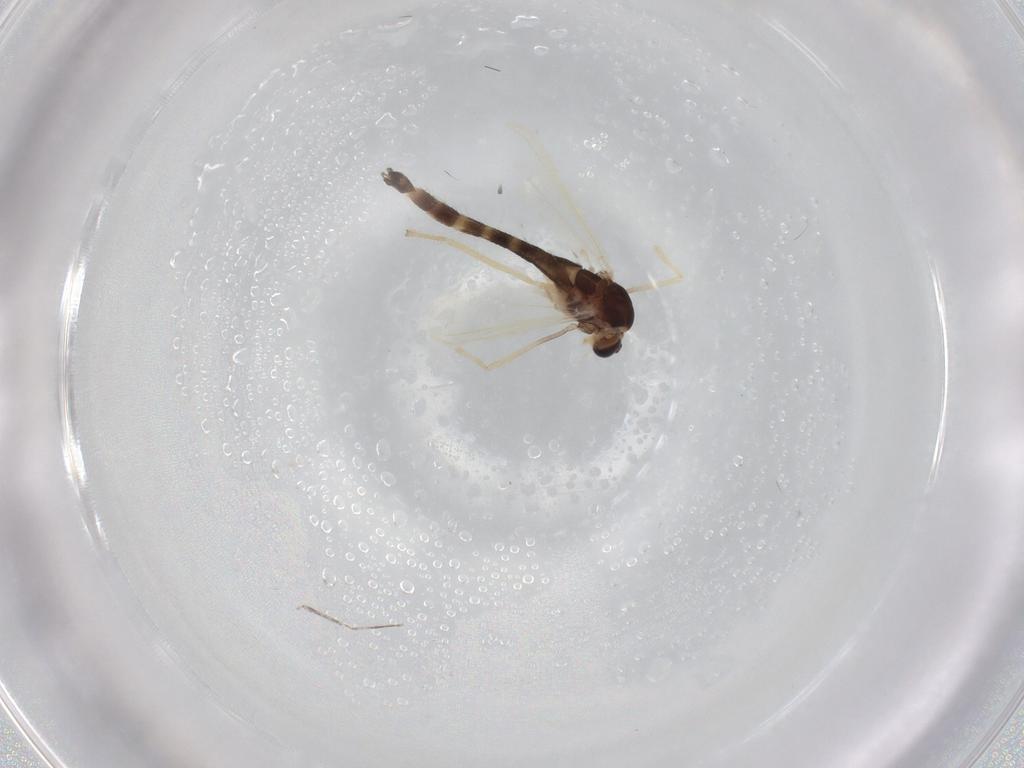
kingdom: Animalia
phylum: Arthropoda
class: Insecta
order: Diptera
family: Chironomidae
